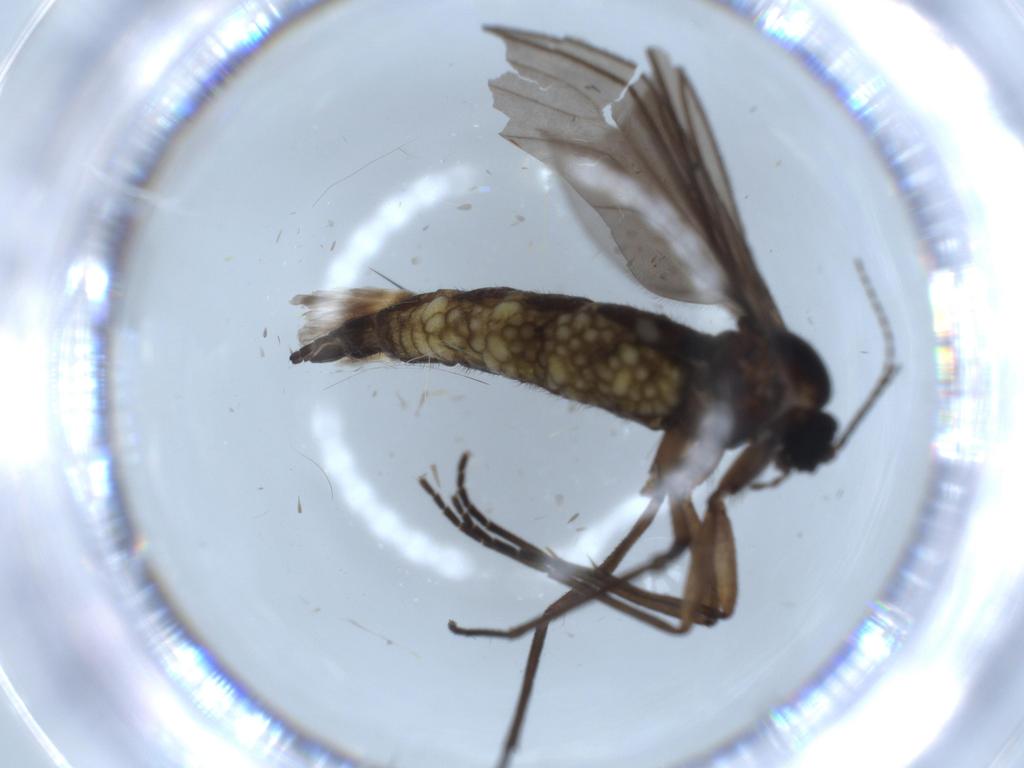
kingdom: Animalia
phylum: Arthropoda
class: Insecta
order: Diptera
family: Sciaridae
